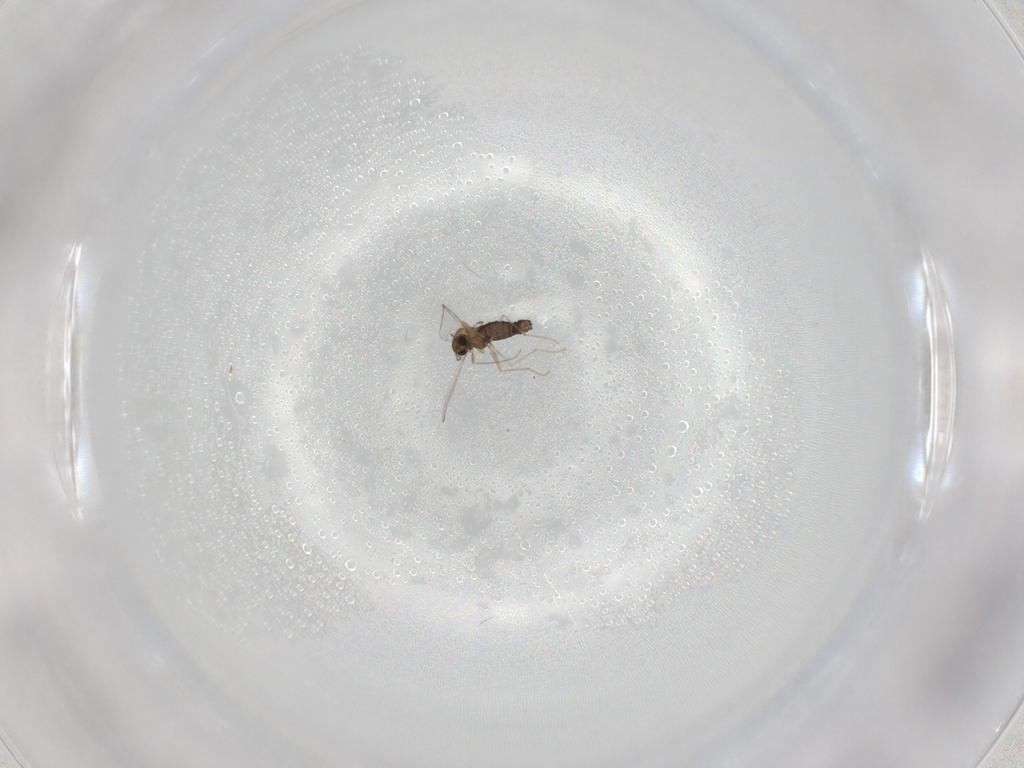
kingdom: Animalia
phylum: Arthropoda
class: Insecta
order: Diptera
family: Chironomidae
